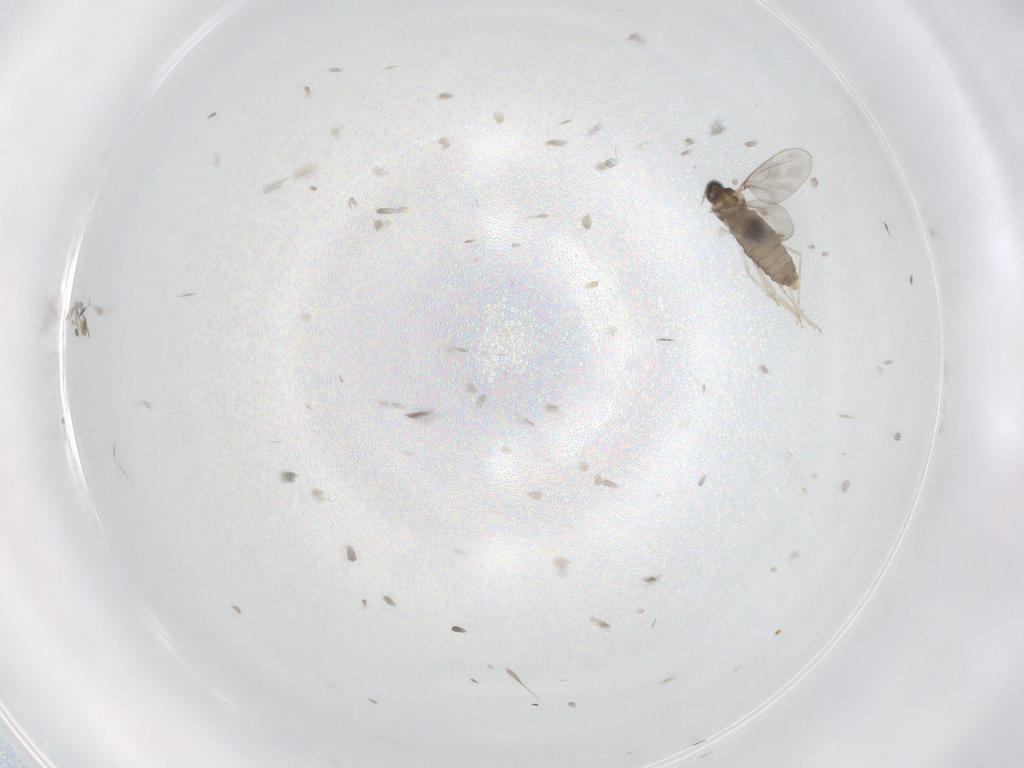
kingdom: Animalia
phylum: Arthropoda
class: Insecta
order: Diptera
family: Cecidomyiidae
